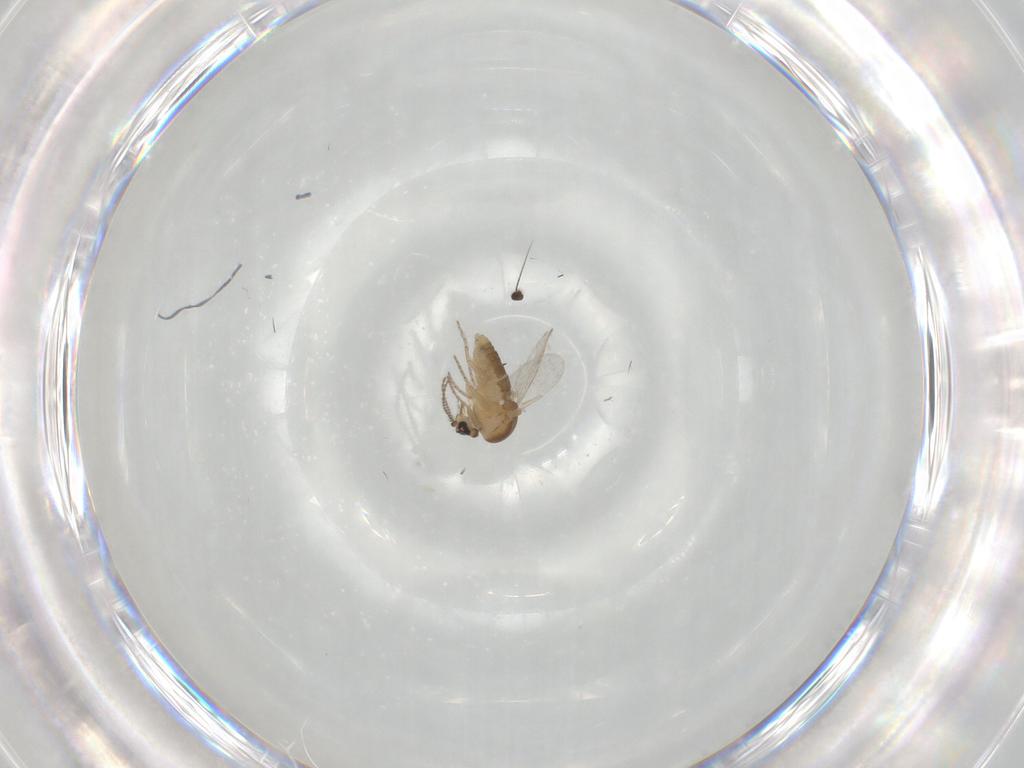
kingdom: Animalia
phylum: Arthropoda
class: Insecta
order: Diptera
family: Ceratopogonidae
